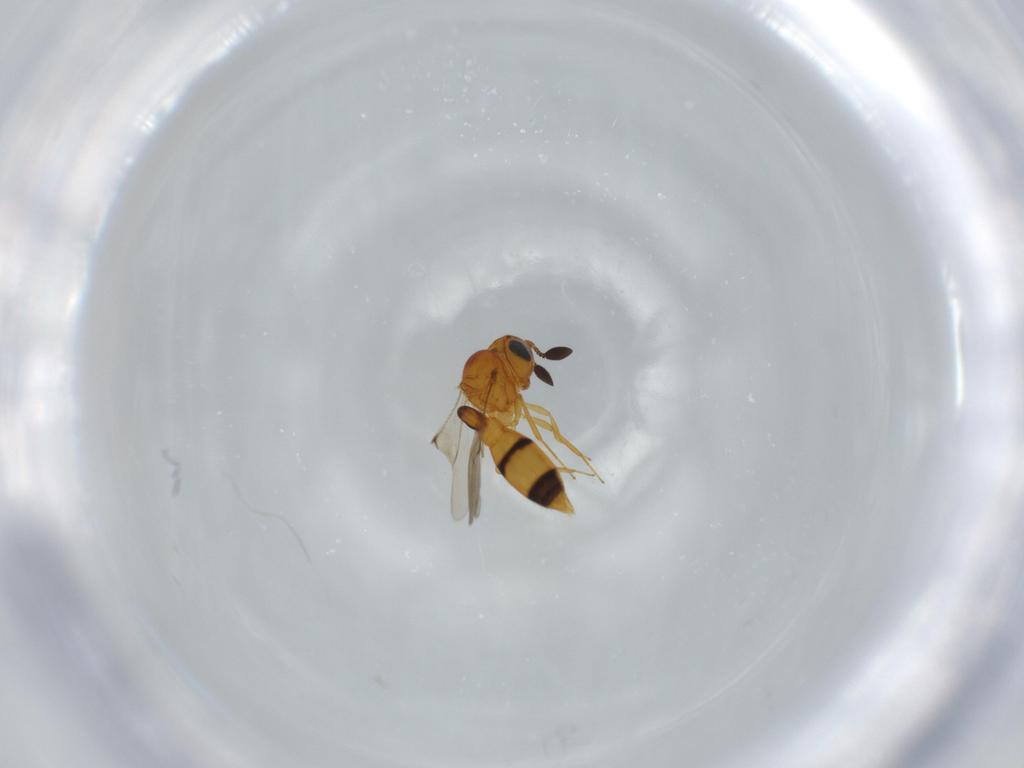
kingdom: Animalia
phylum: Arthropoda
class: Insecta
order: Hymenoptera
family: Scelionidae
